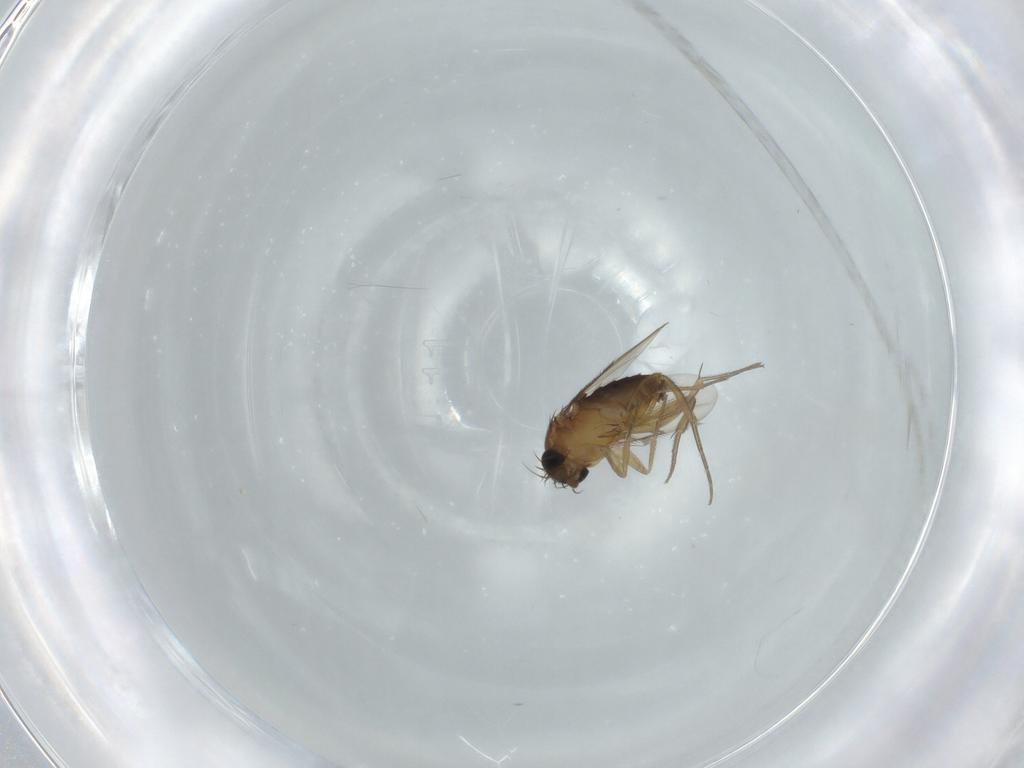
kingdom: Animalia
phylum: Arthropoda
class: Insecta
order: Diptera
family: Phoridae
